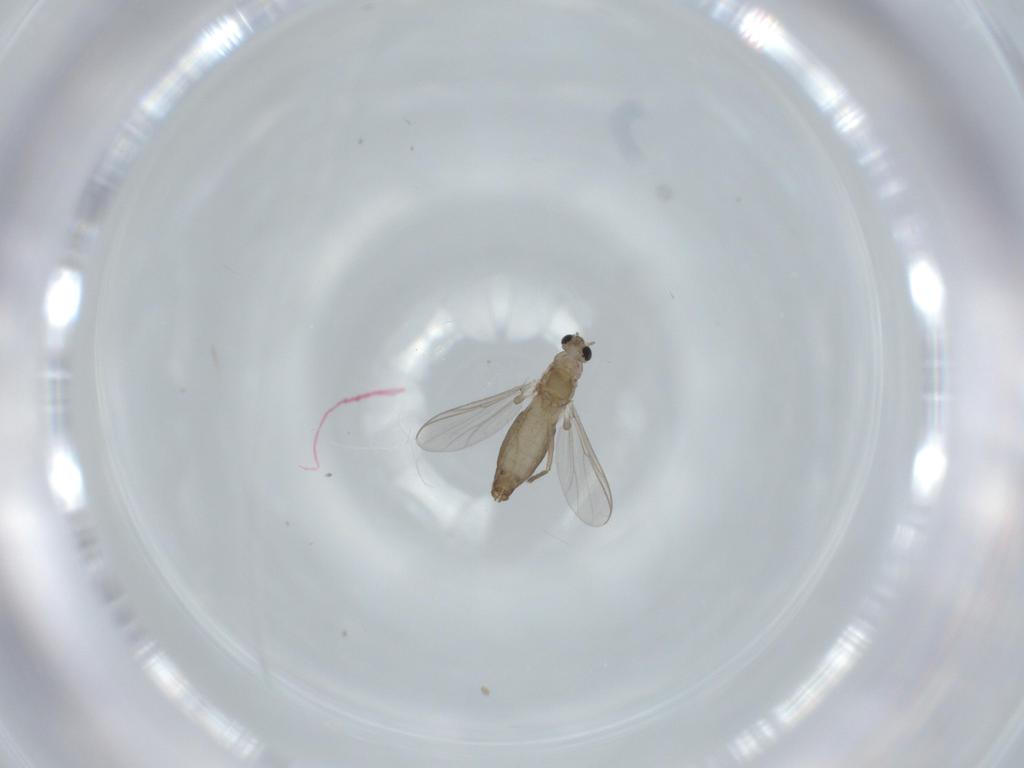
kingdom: Animalia
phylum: Arthropoda
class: Insecta
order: Diptera
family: Chironomidae
